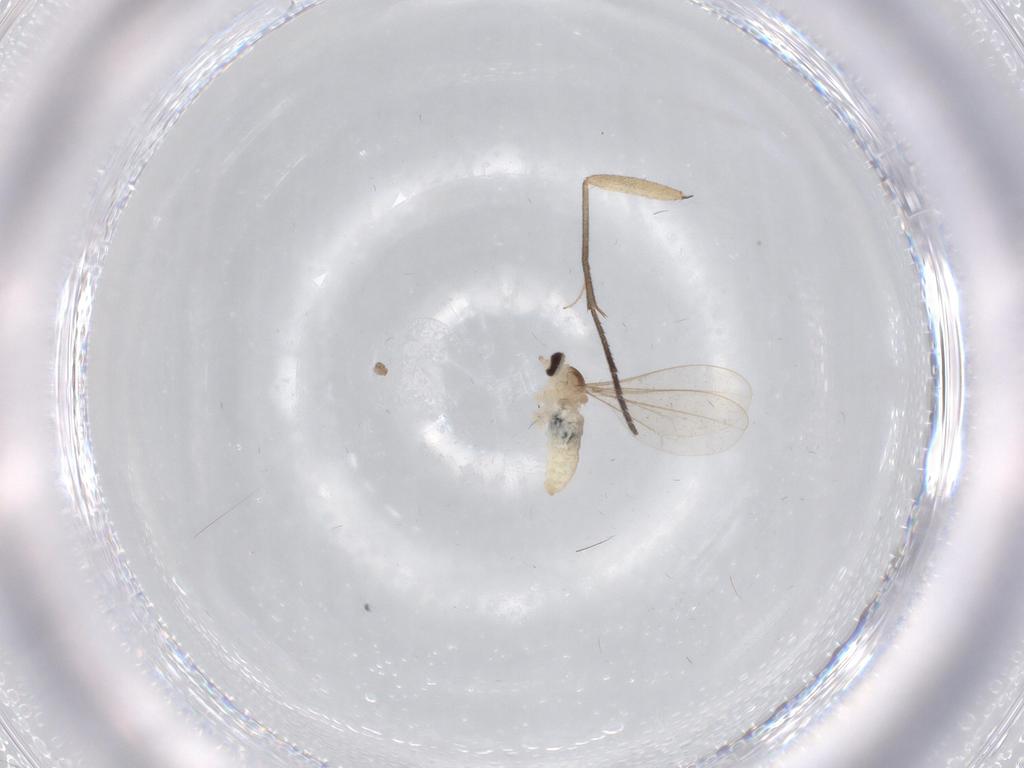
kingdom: Animalia
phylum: Arthropoda
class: Insecta
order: Diptera
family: Cecidomyiidae
